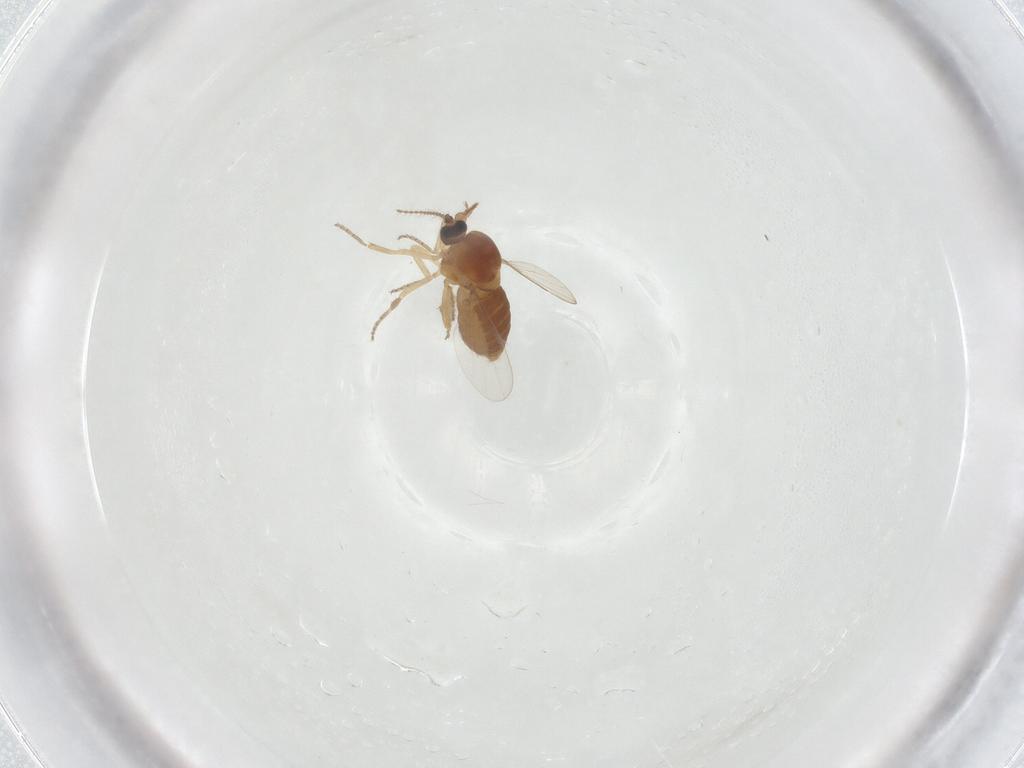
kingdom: Animalia
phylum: Arthropoda
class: Insecta
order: Diptera
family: Ceratopogonidae
